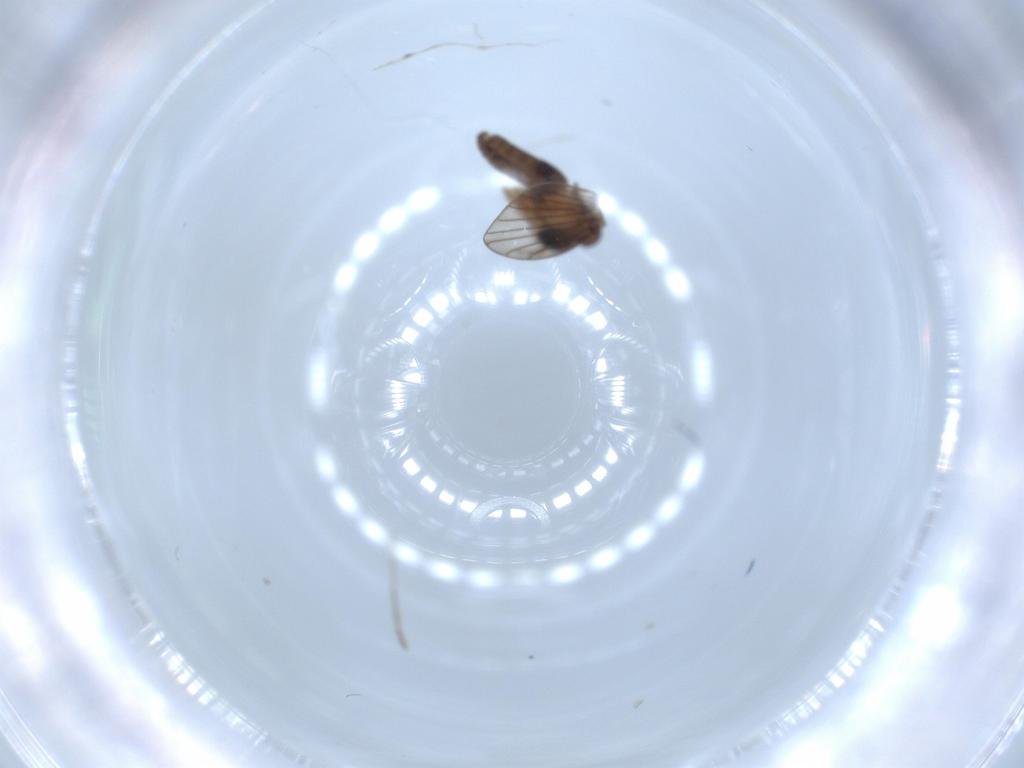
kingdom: Animalia
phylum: Arthropoda
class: Insecta
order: Diptera
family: Psychodidae
